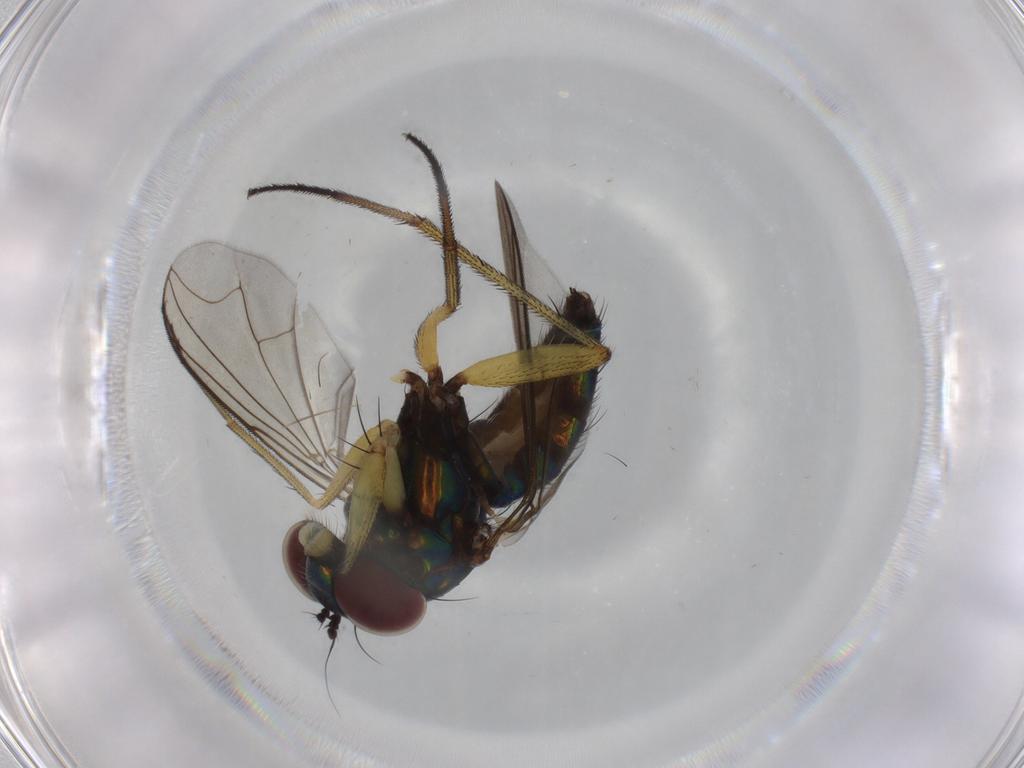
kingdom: Animalia
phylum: Arthropoda
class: Insecta
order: Diptera
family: Dolichopodidae
